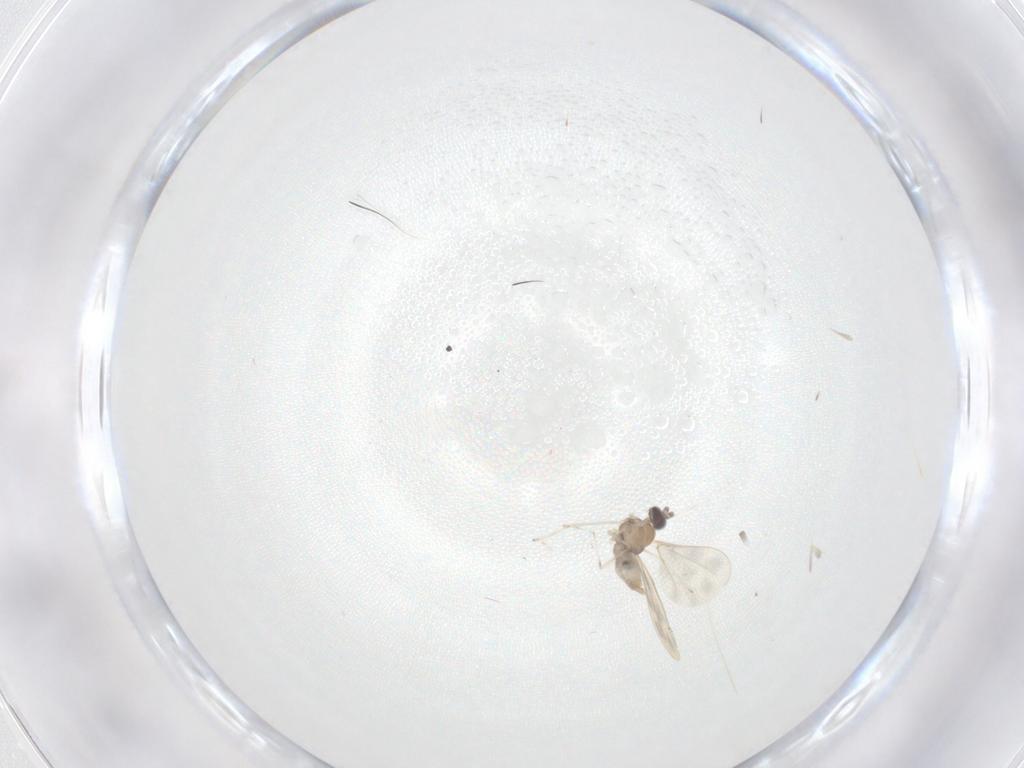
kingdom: Animalia
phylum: Arthropoda
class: Insecta
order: Diptera
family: Cecidomyiidae
